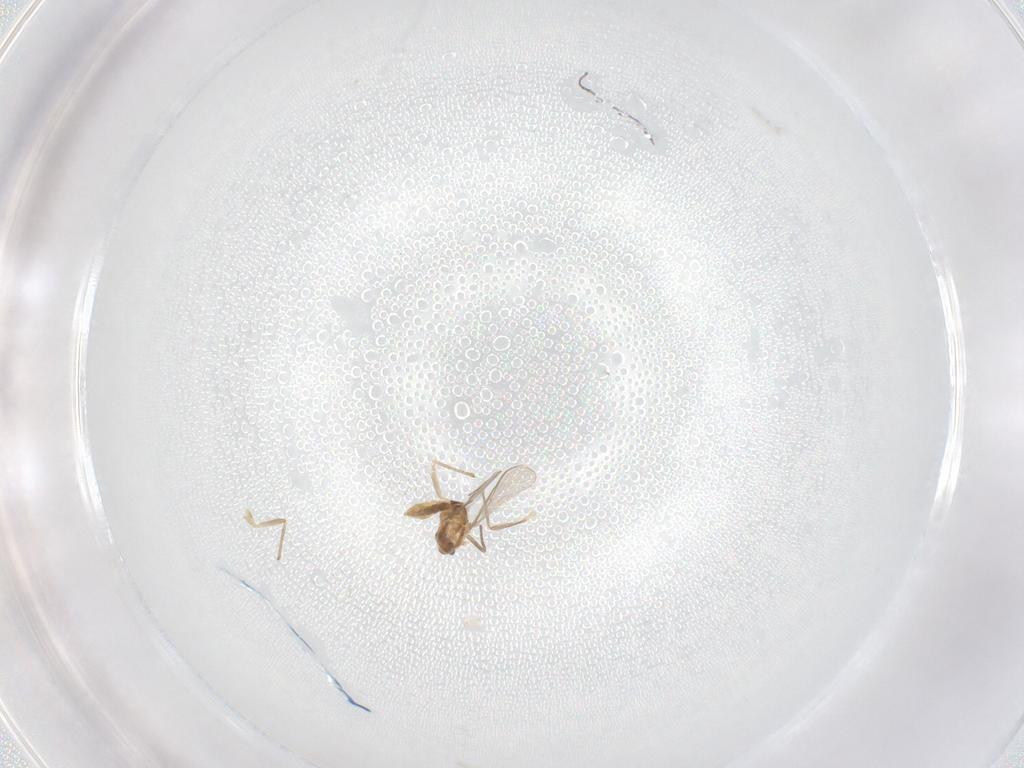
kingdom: Animalia
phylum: Arthropoda
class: Insecta
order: Diptera
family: Chironomidae
